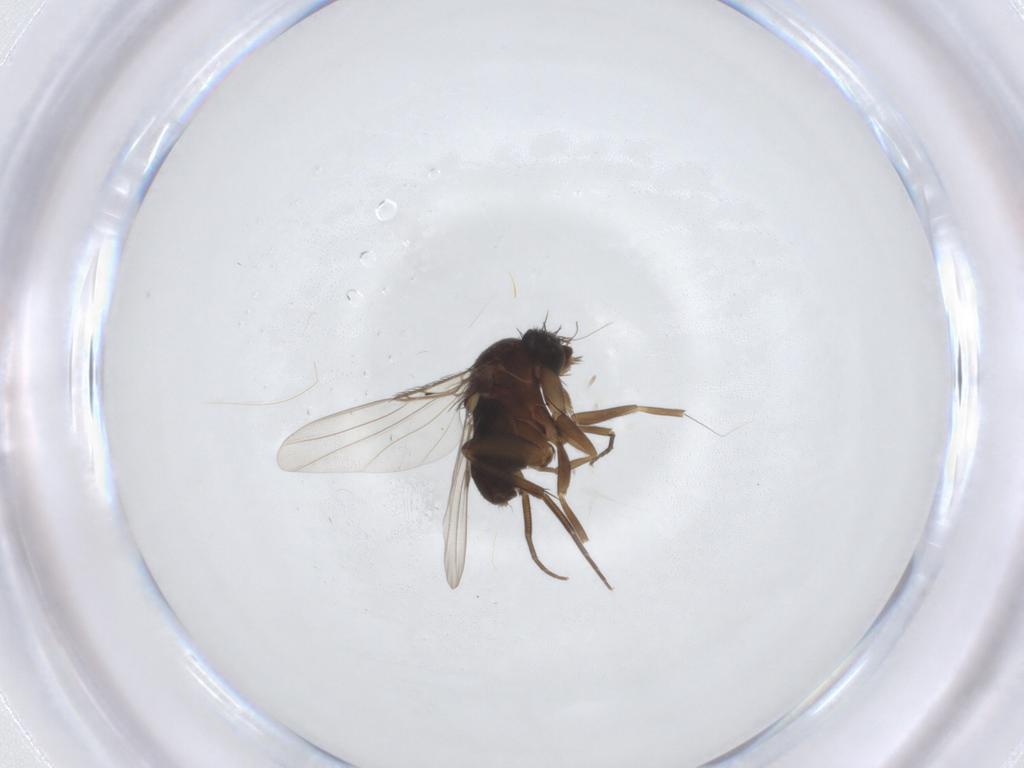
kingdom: Animalia
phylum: Arthropoda
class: Insecta
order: Diptera
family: Phoridae
